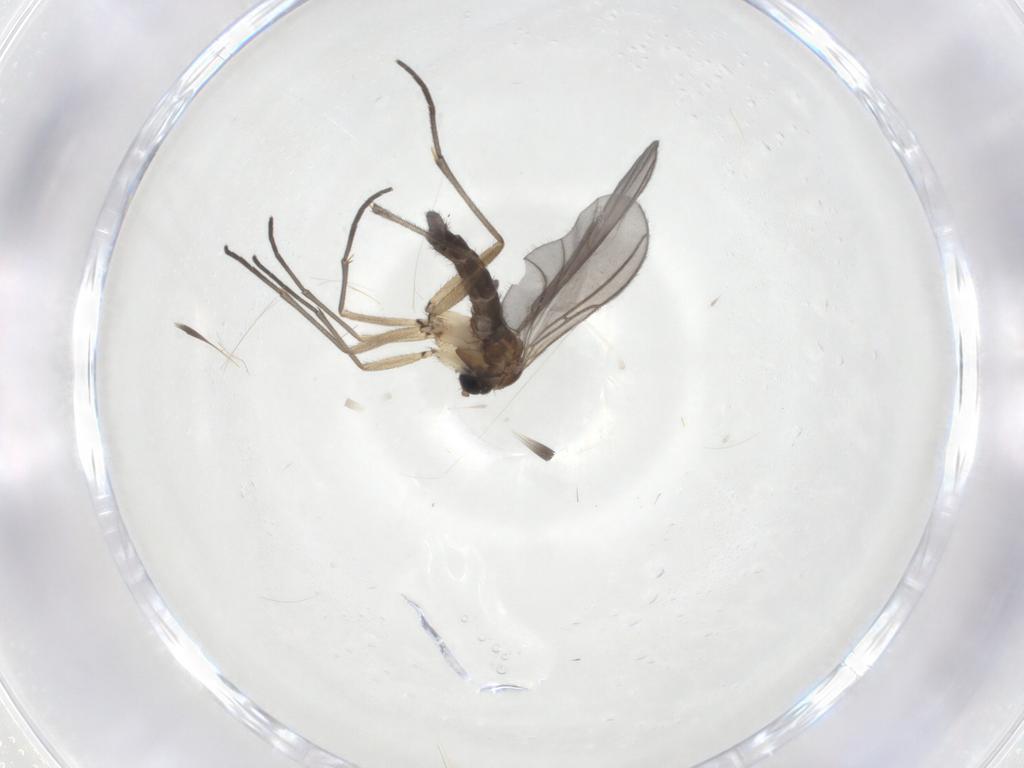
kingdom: Animalia
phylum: Arthropoda
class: Insecta
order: Diptera
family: Sciaridae
